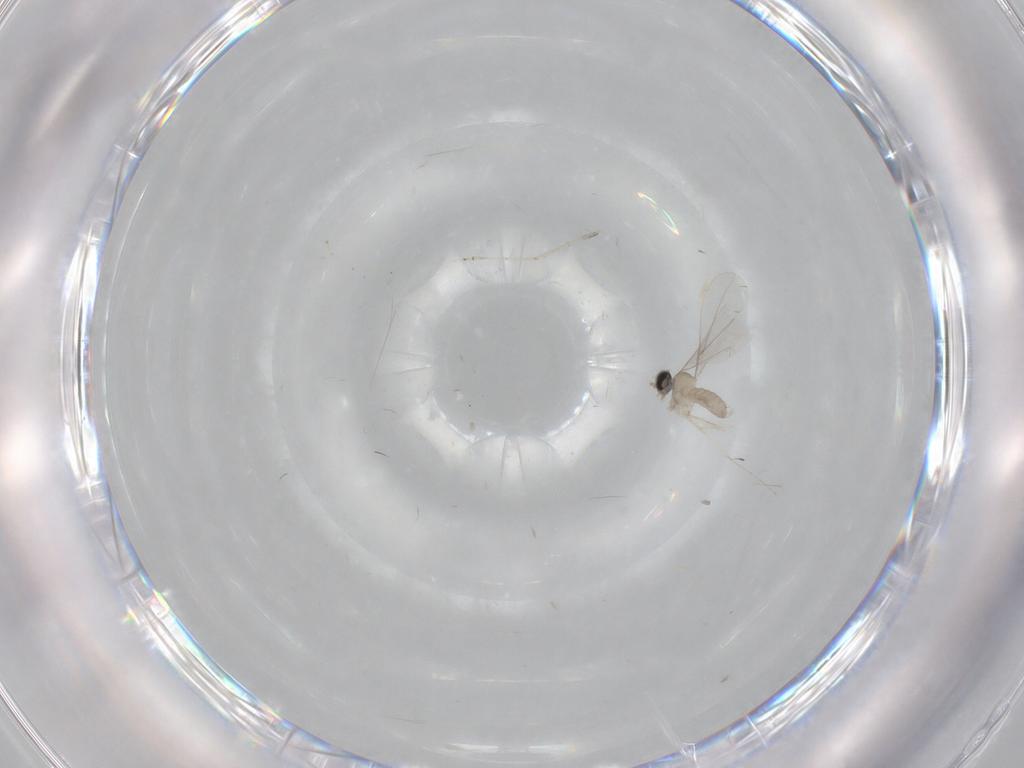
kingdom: Animalia
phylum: Arthropoda
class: Insecta
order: Diptera
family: Cecidomyiidae
